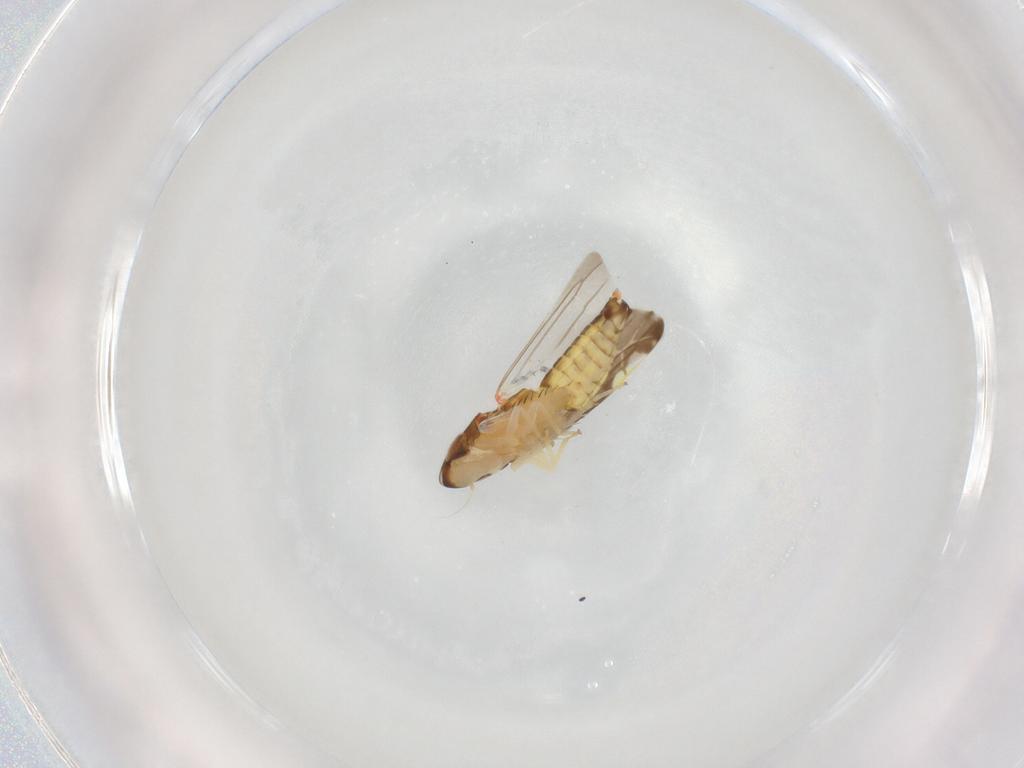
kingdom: Animalia
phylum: Arthropoda
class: Insecta
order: Hemiptera
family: Cicadellidae
